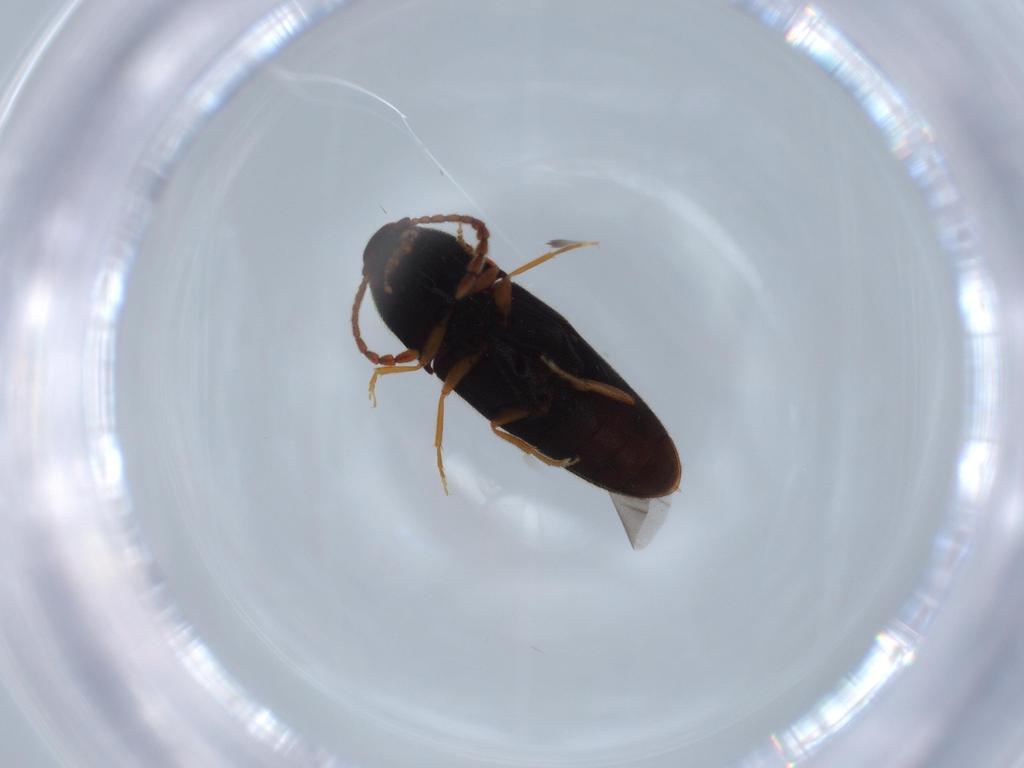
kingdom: Animalia
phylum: Arthropoda
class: Insecta
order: Coleoptera
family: Elateridae
